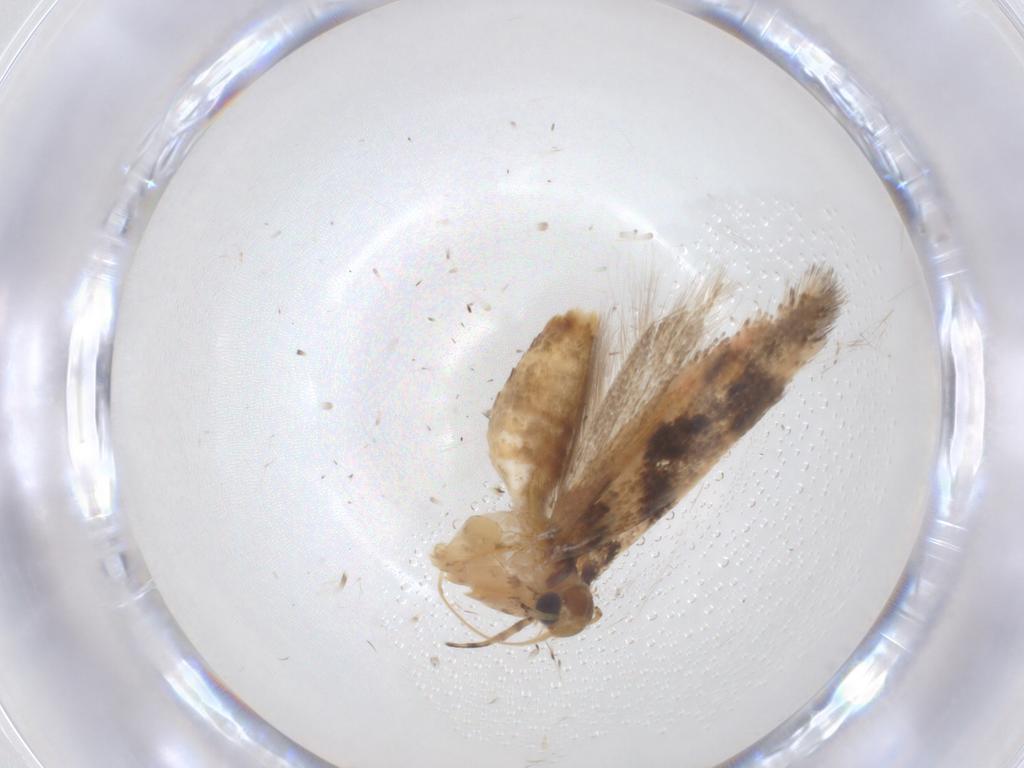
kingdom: Animalia
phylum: Arthropoda
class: Insecta
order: Lepidoptera
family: Gelechiidae
